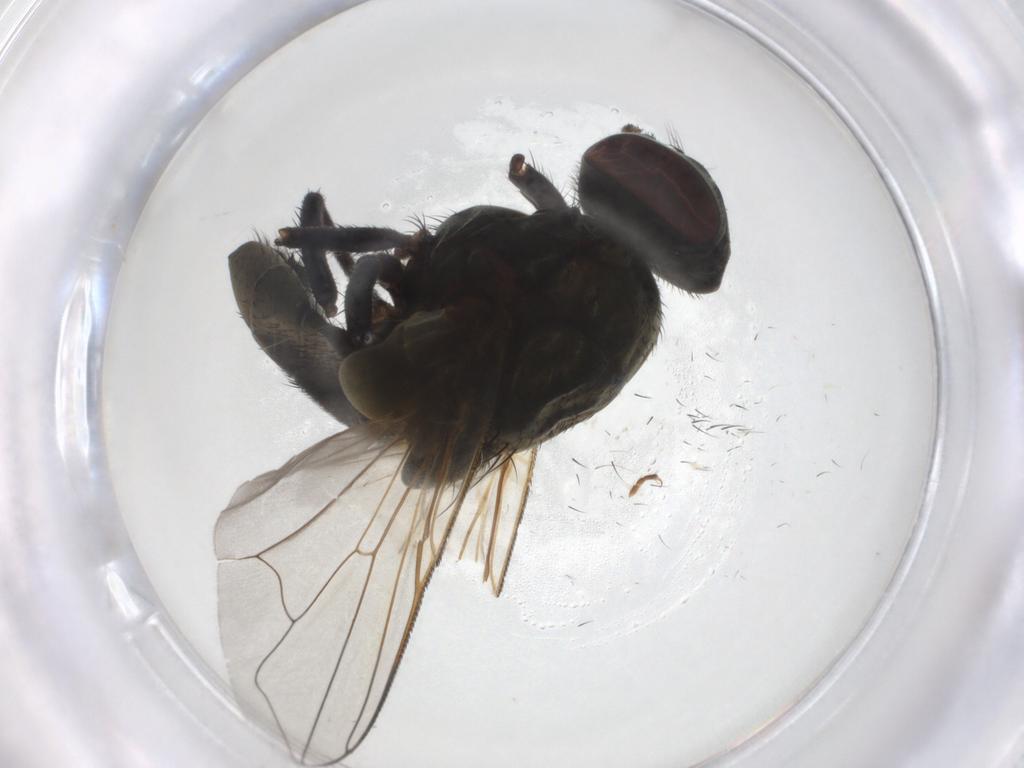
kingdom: Animalia
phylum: Arthropoda
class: Insecta
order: Diptera
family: Muscidae
